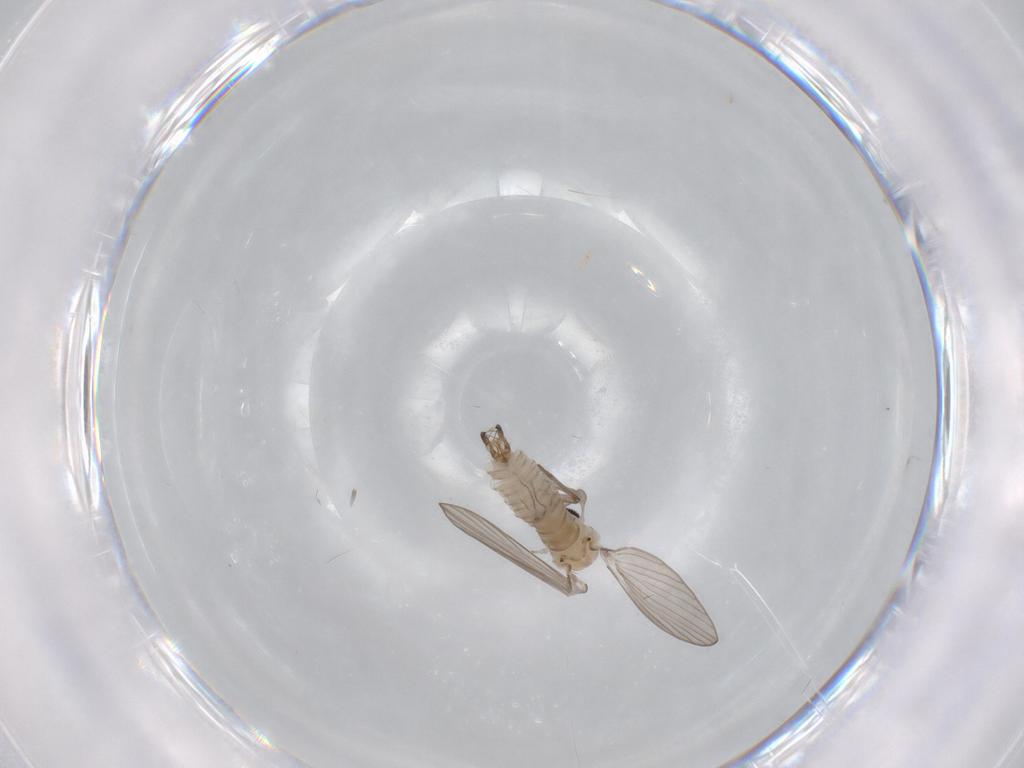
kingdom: Animalia
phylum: Arthropoda
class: Insecta
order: Diptera
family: Psychodidae
